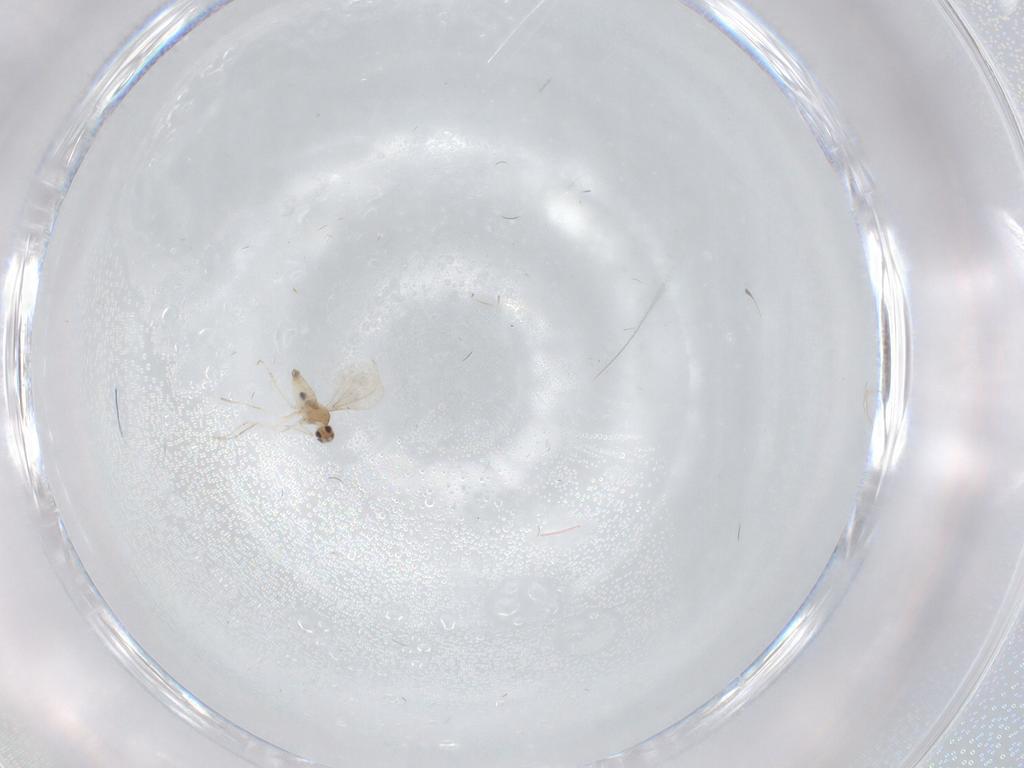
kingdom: Animalia
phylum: Arthropoda
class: Insecta
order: Diptera
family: Cecidomyiidae
